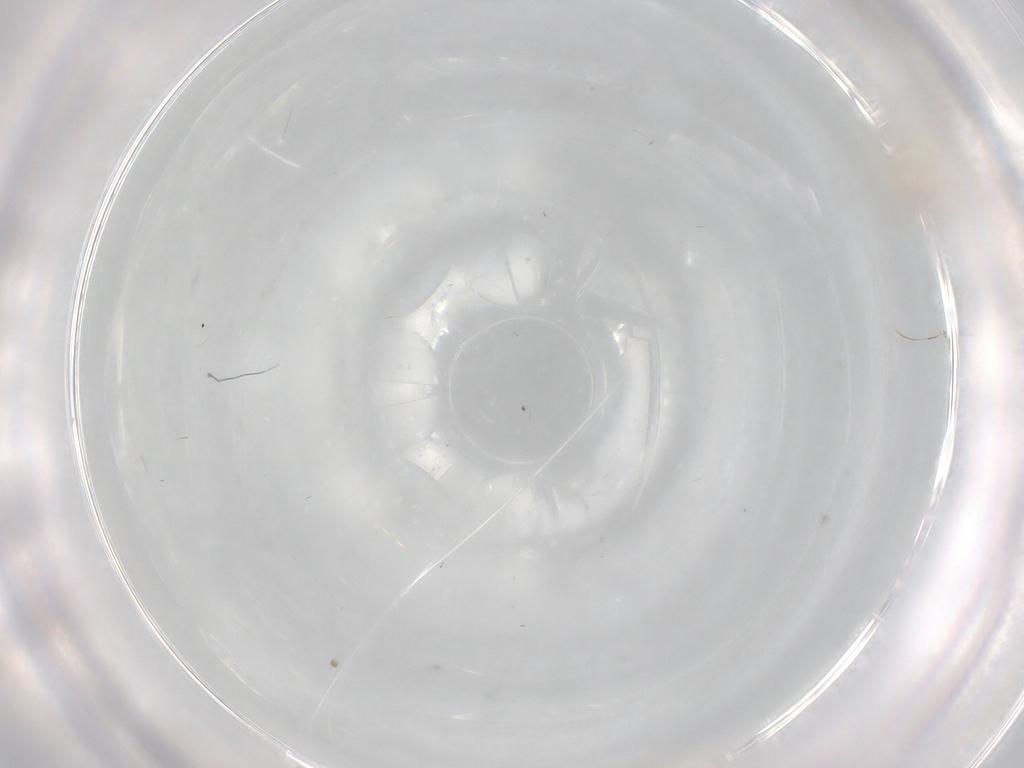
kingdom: Animalia
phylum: Arthropoda
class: Insecta
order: Diptera
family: Cecidomyiidae
